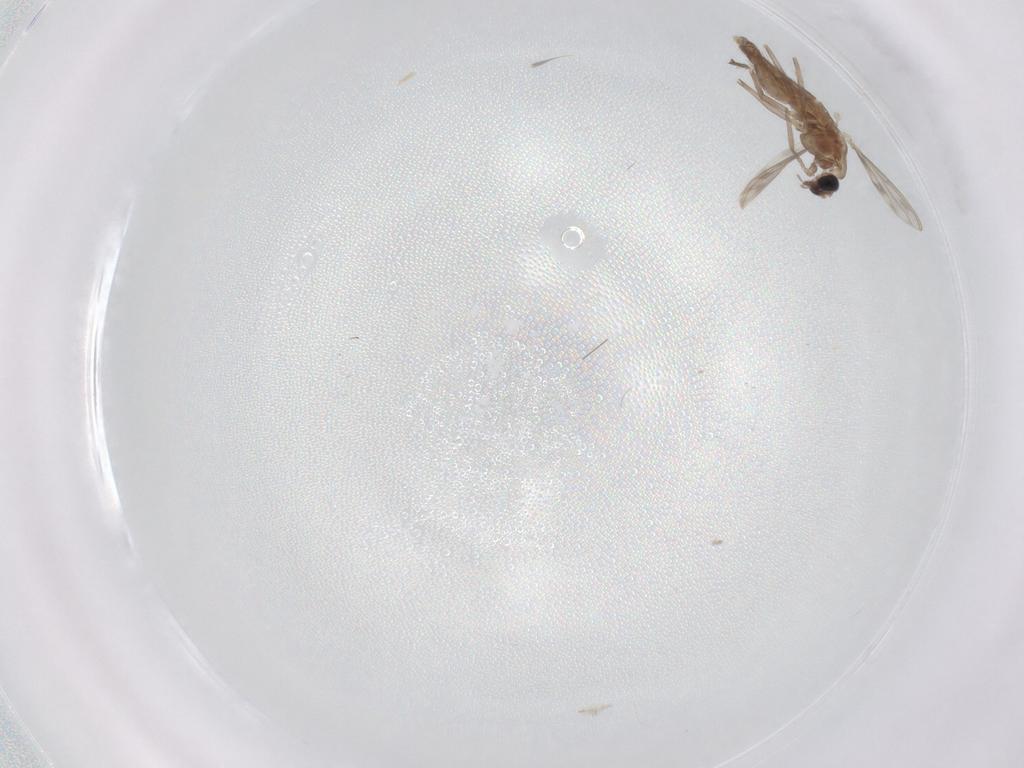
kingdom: Animalia
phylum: Arthropoda
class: Insecta
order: Diptera
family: Chironomidae
